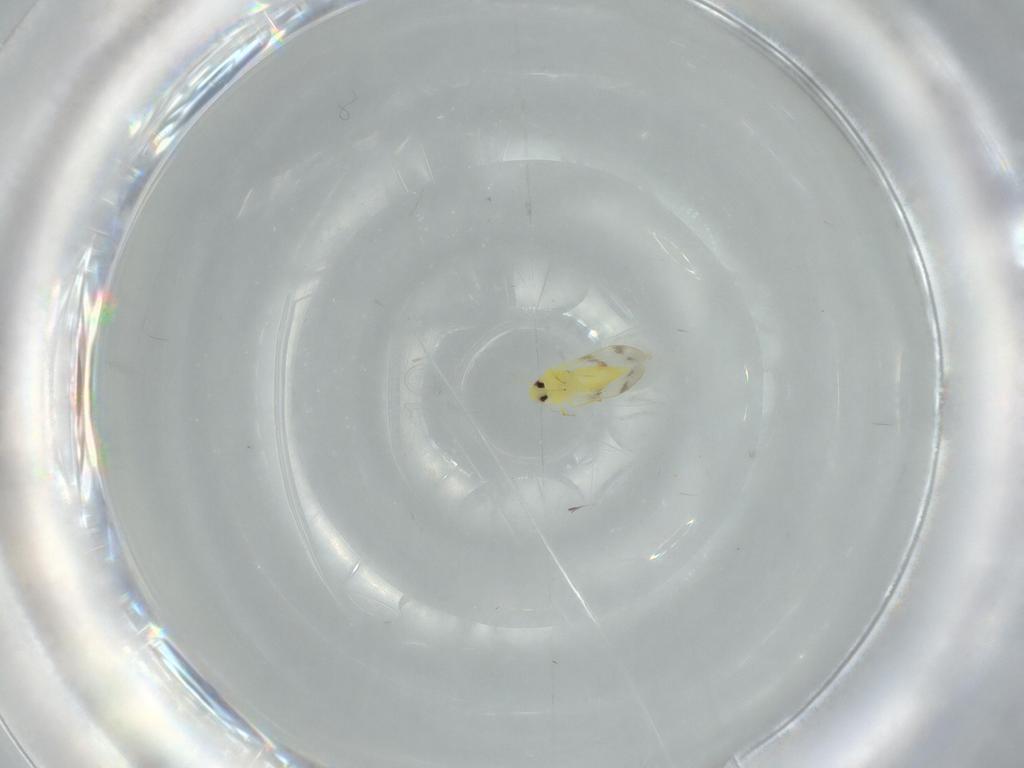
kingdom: Animalia
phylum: Arthropoda
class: Insecta
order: Hemiptera
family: Aleyrodidae
